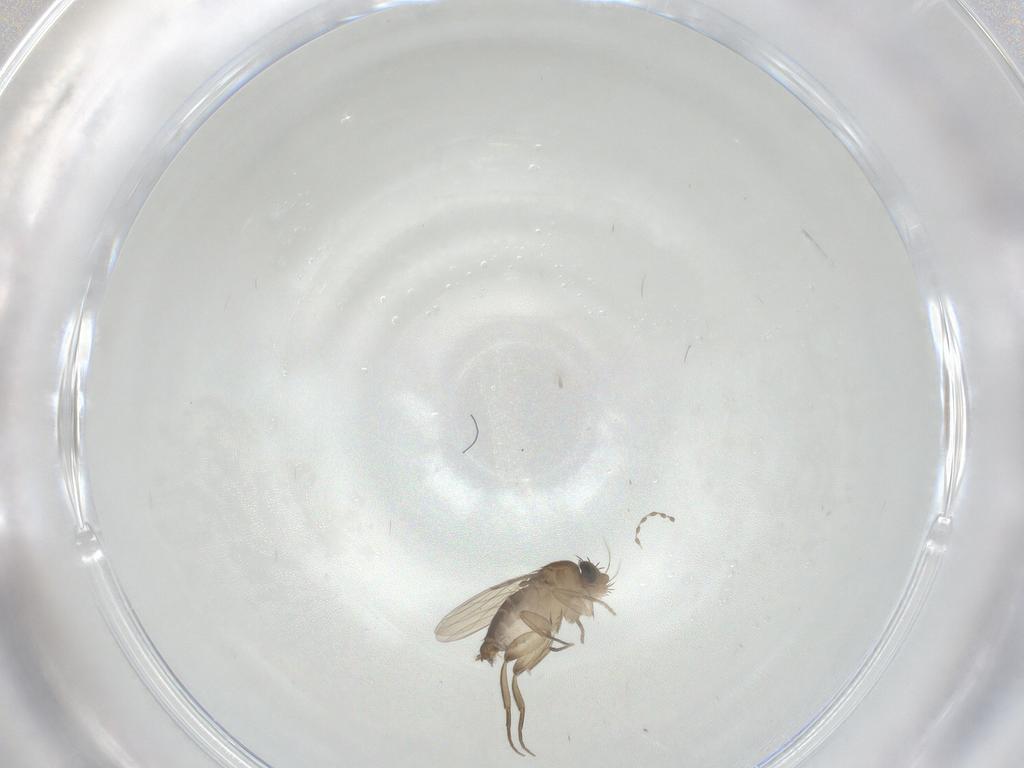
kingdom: Animalia
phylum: Arthropoda
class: Insecta
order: Diptera
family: Phoridae
